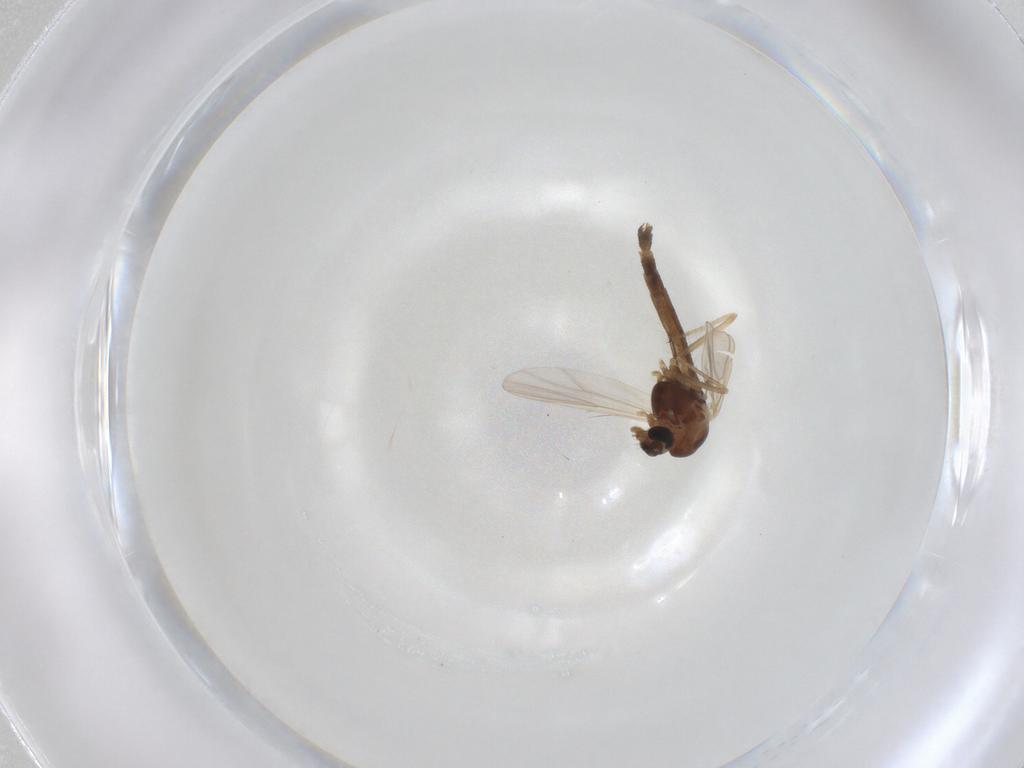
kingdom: Animalia
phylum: Arthropoda
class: Insecta
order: Diptera
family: Chironomidae
